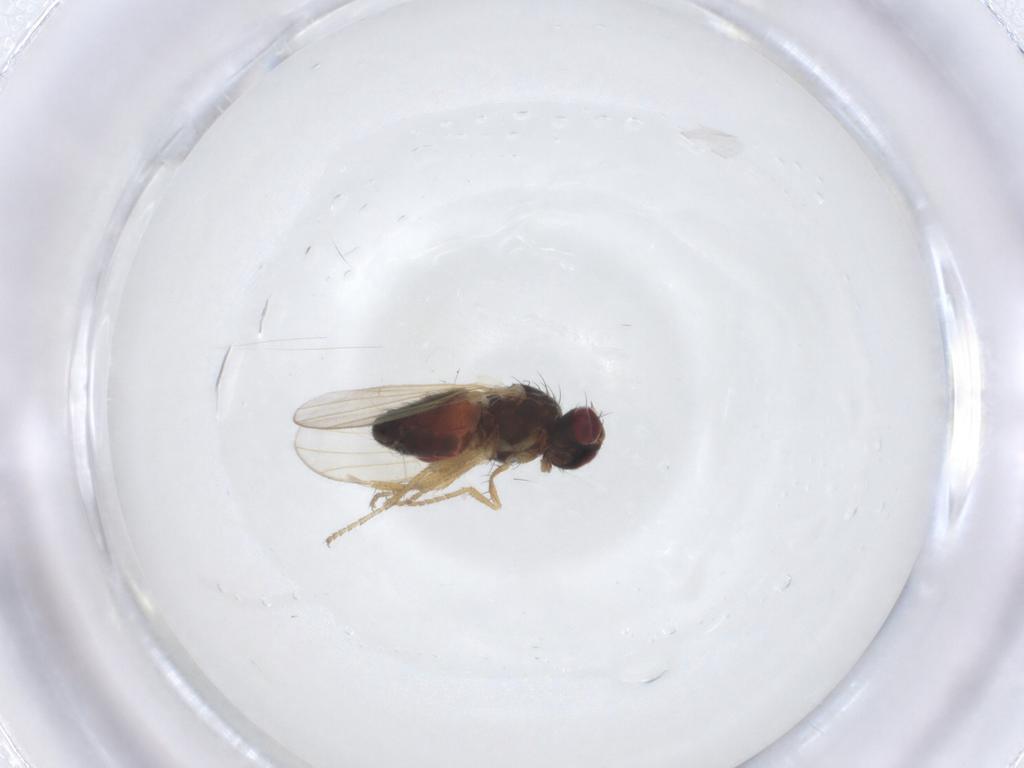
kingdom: Animalia
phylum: Arthropoda
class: Insecta
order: Diptera
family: Heleomyzidae
